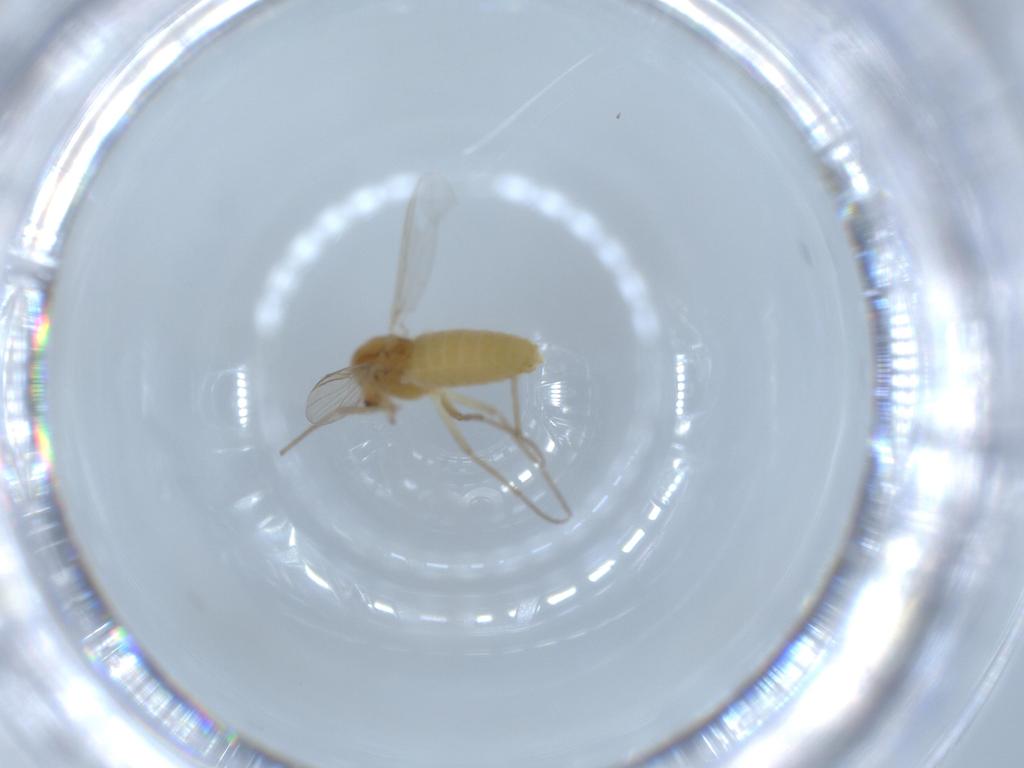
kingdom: Animalia
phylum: Arthropoda
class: Insecta
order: Diptera
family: Chironomidae
